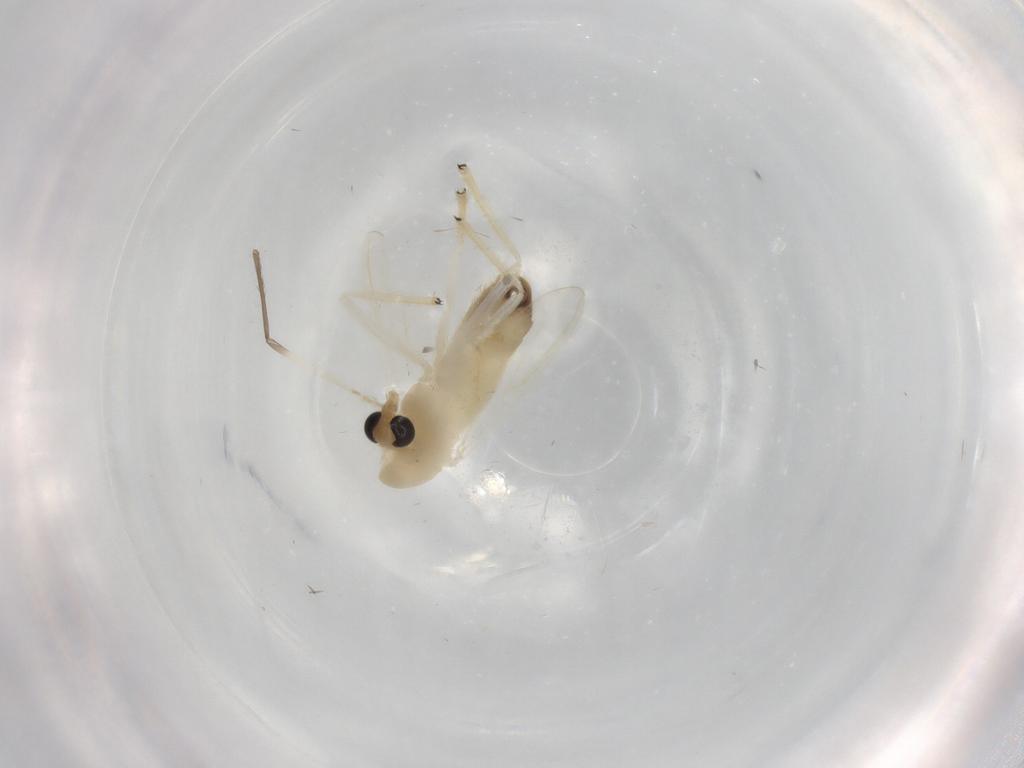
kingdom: Animalia
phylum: Arthropoda
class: Insecta
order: Diptera
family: Chironomidae
